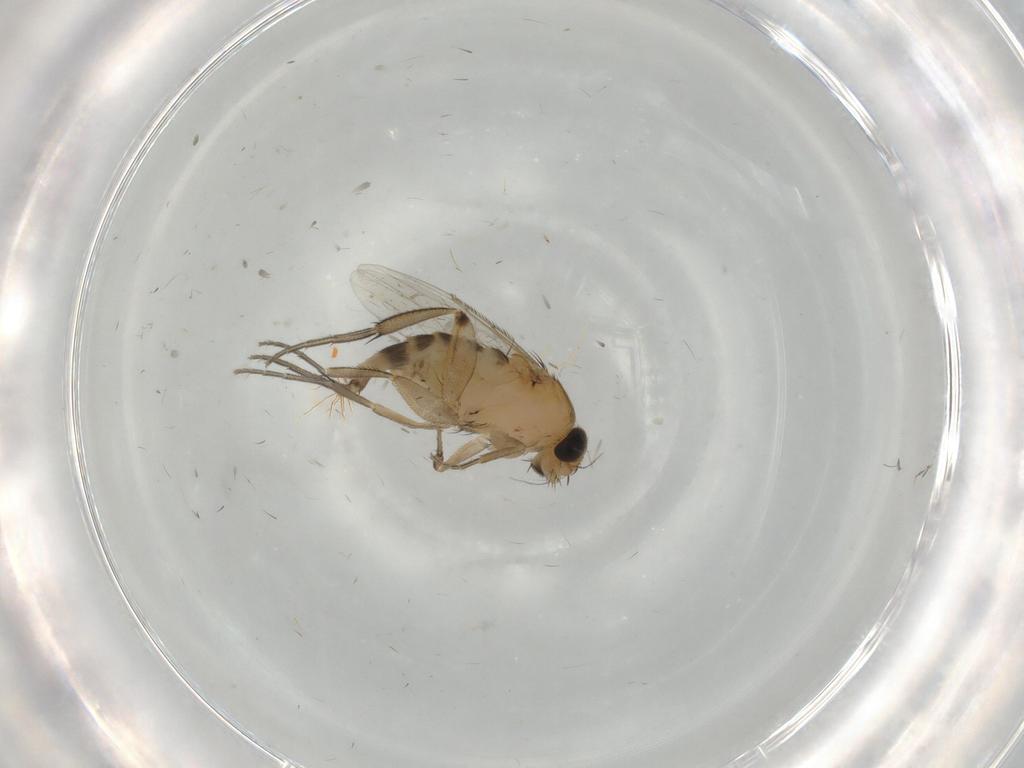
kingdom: Animalia
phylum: Arthropoda
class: Insecta
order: Diptera
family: Phoridae
